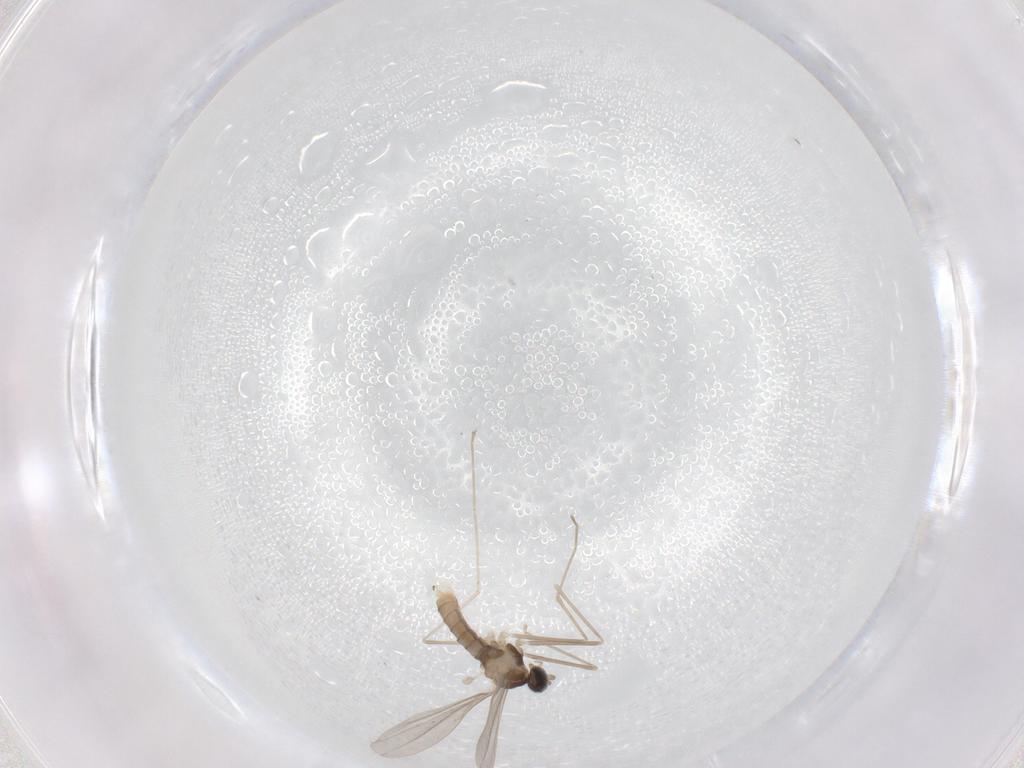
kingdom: Animalia
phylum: Arthropoda
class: Insecta
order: Diptera
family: Muscidae
